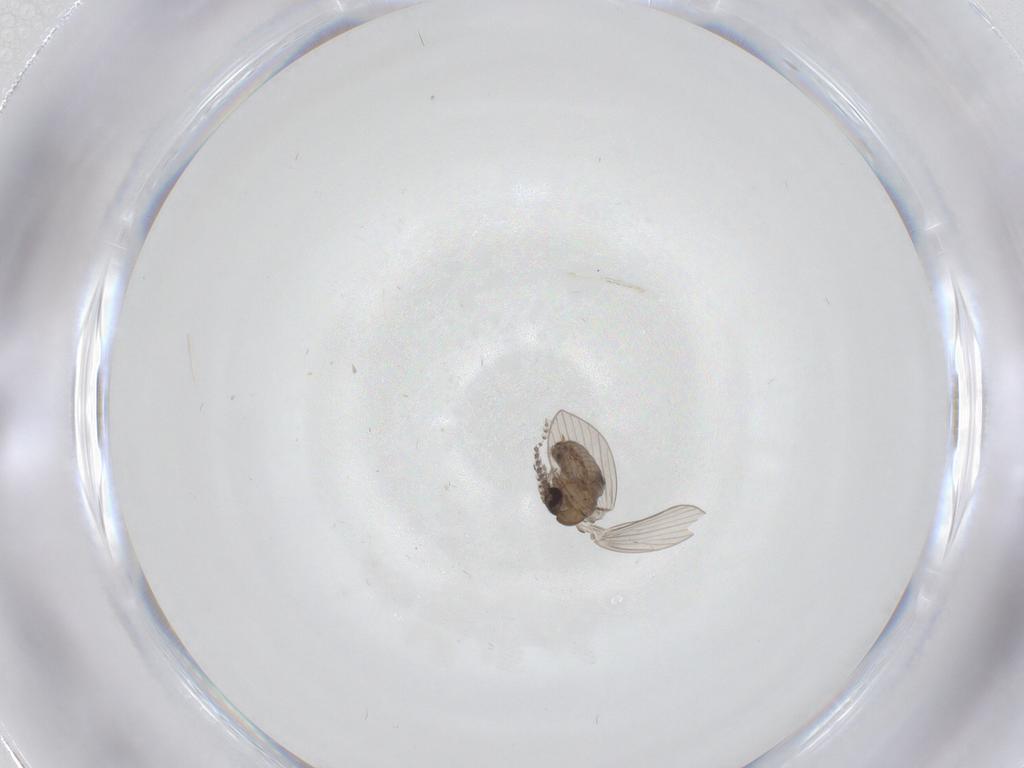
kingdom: Animalia
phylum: Arthropoda
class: Insecta
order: Diptera
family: Psychodidae
